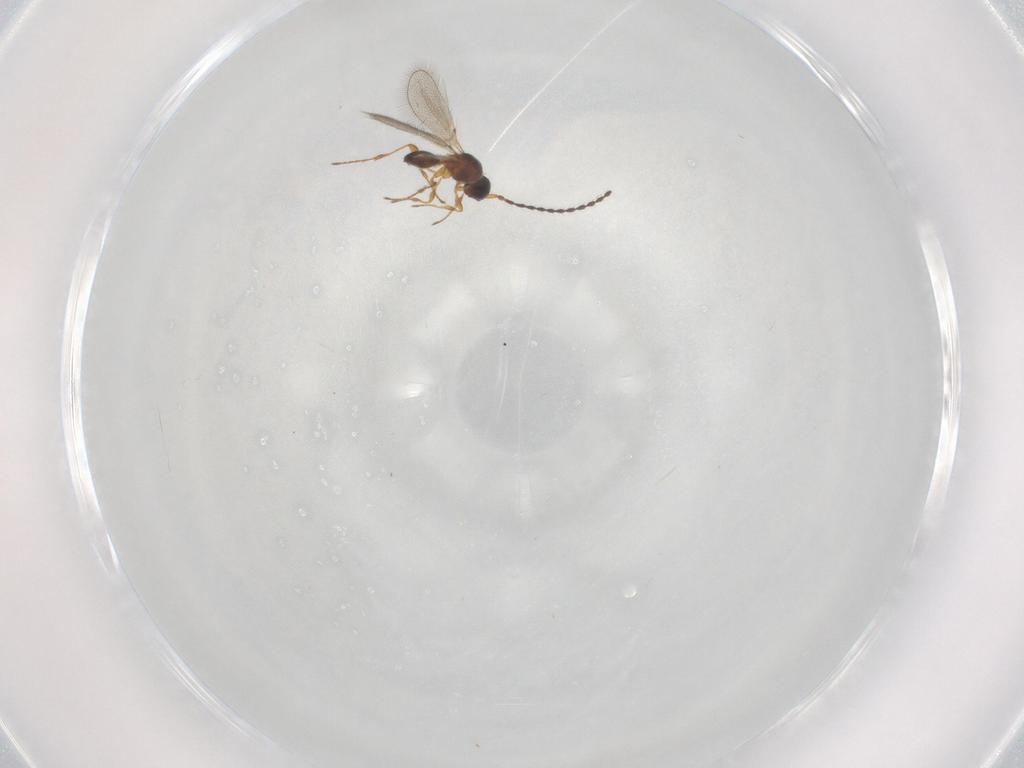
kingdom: Animalia
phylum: Arthropoda
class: Insecta
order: Hymenoptera
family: Diapriidae
